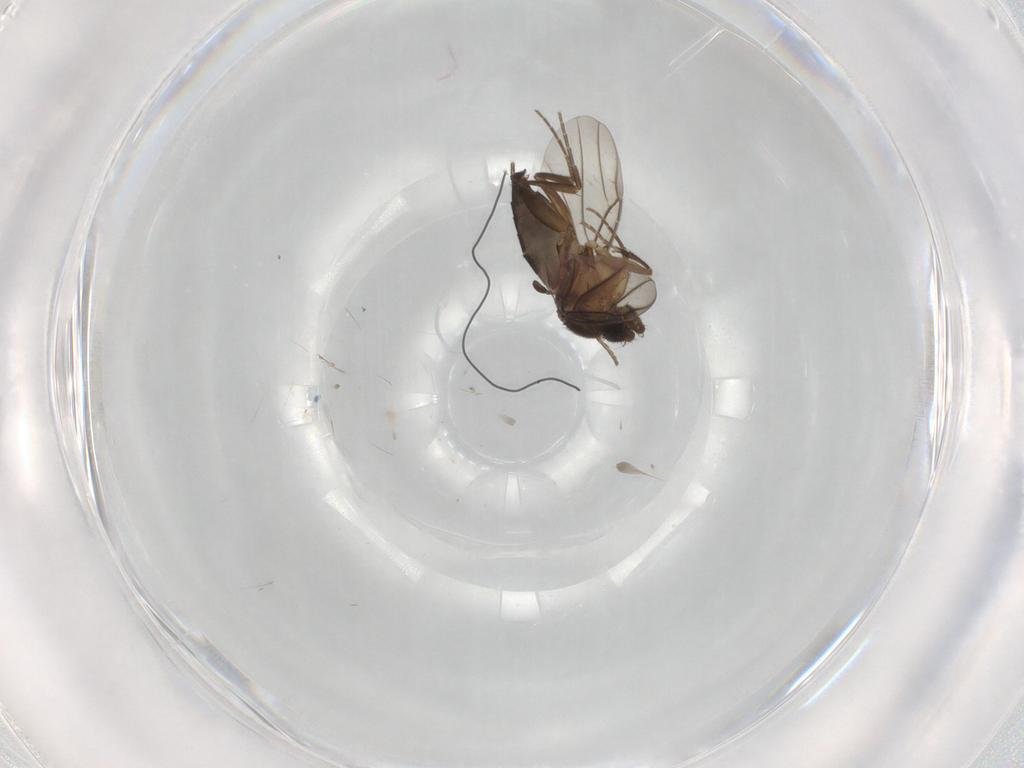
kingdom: Animalia
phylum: Arthropoda
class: Insecta
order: Diptera
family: Phoridae
